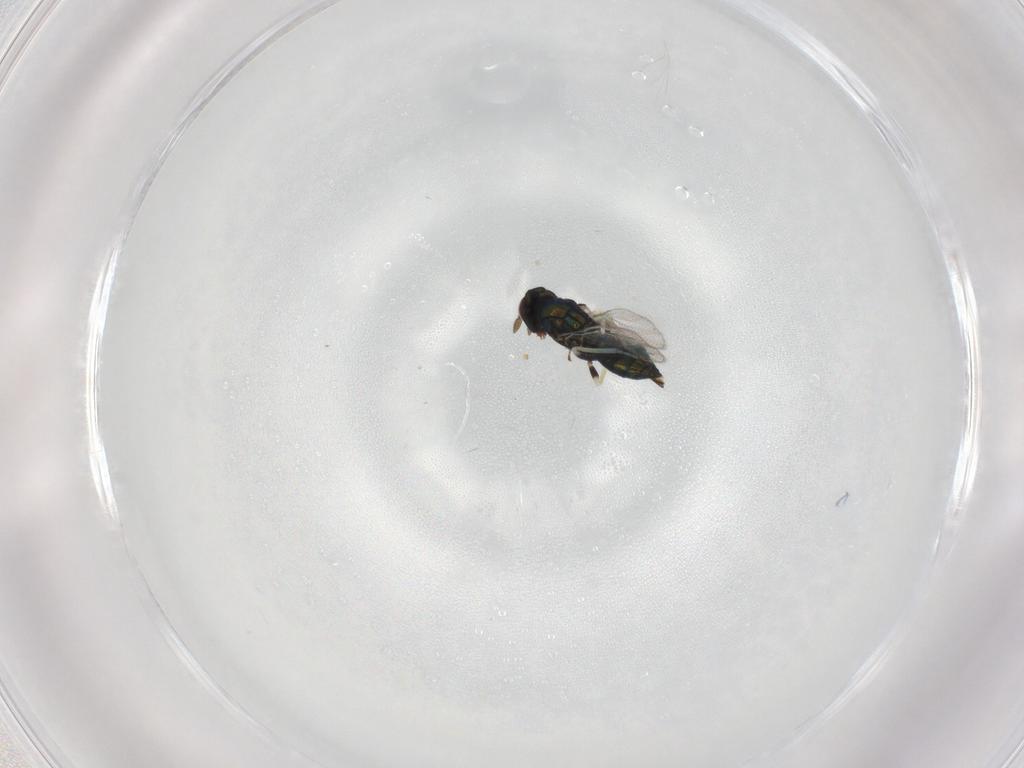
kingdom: Animalia
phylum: Arthropoda
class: Insecta
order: Hymenoptera
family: Eulophidae
